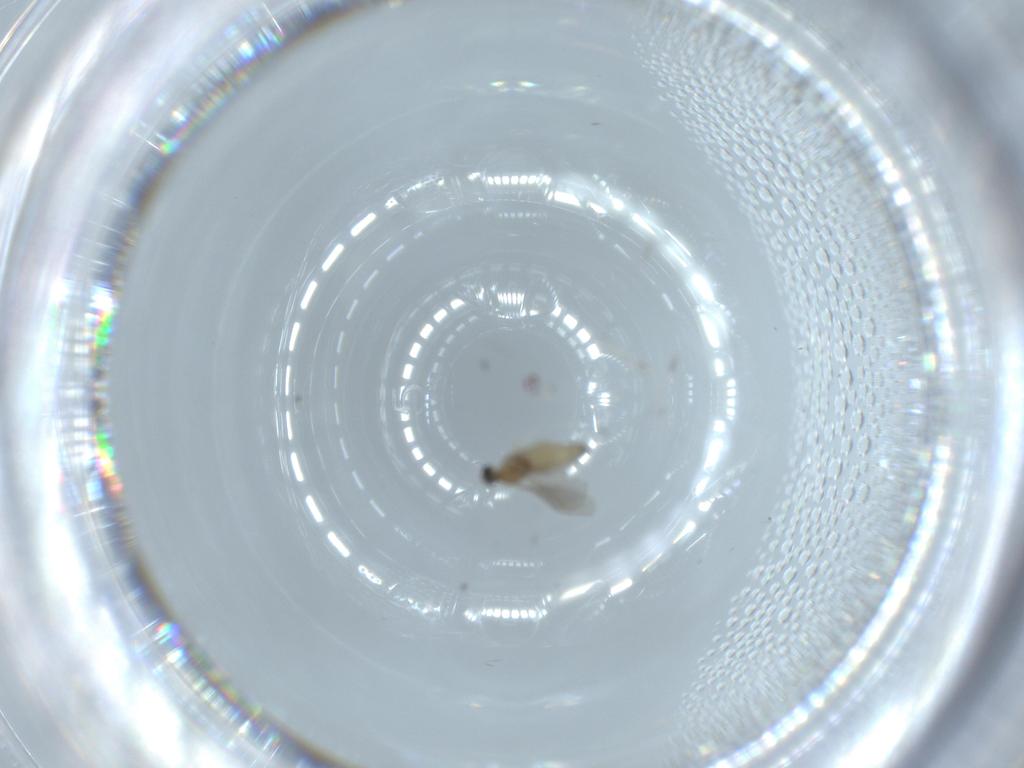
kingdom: Animalia
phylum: Arthropoda
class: Insecta
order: Diptera
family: Cecidomyiidae
